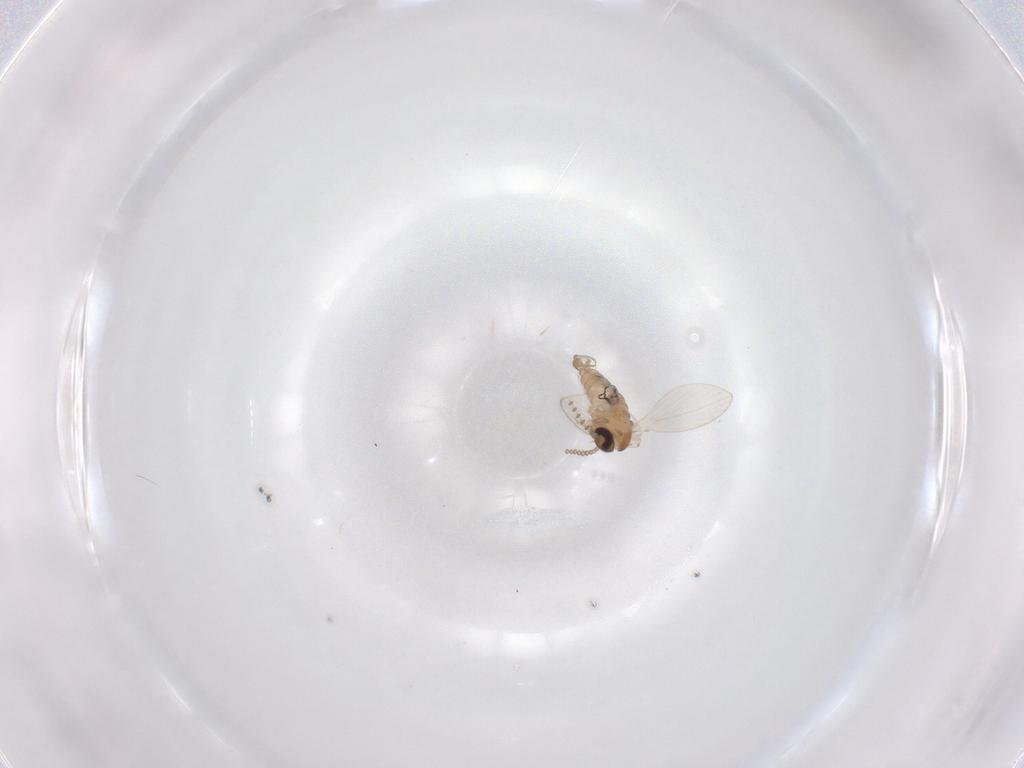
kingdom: Animalia
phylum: Arthropoda
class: Insecta
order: Diptera
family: Psychodidae
